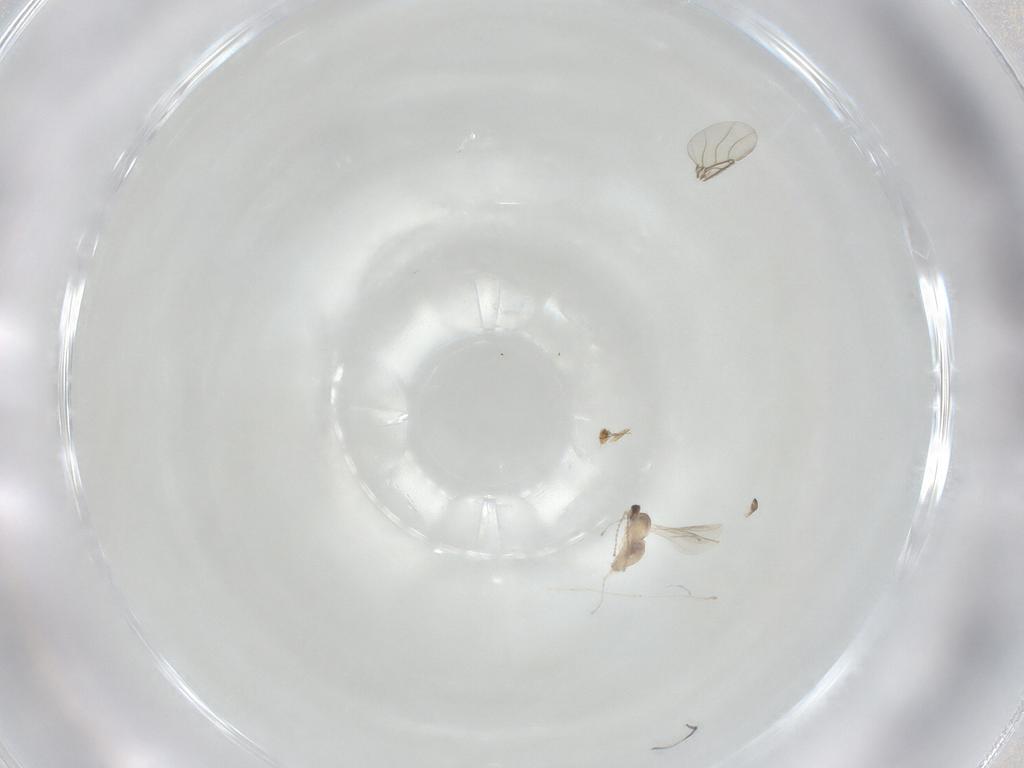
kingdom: Animalia
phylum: Arthropoda
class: Insecta
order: Diptera
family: Cecidomyiidae
